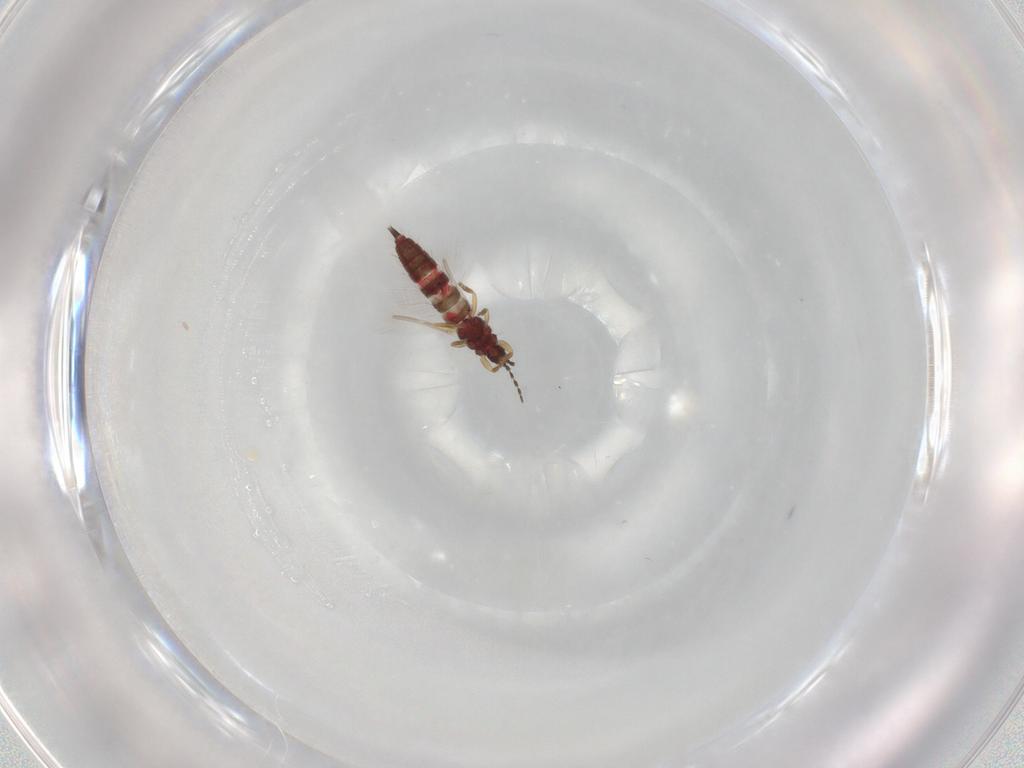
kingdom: Animalia
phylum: Arthropoda
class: Insecta
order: Thysanoptera
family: Phlaeothripidae
